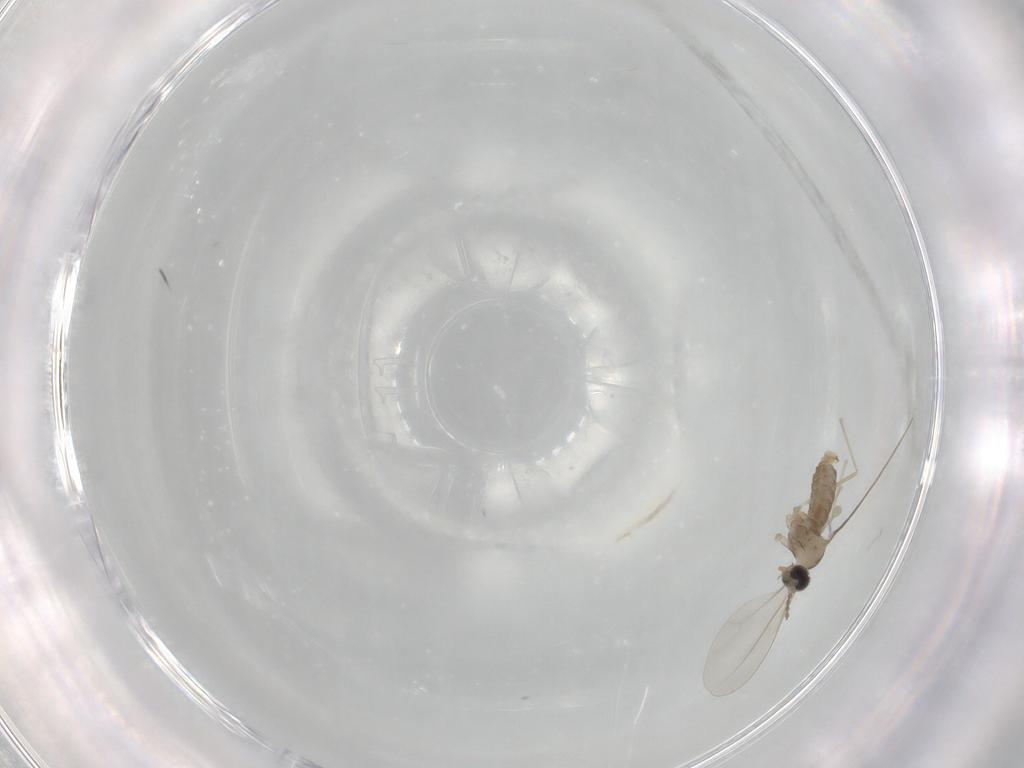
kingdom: Animalia
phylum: Arthropoda
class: Insecta
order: Diptera
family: Cecidomyiidae
